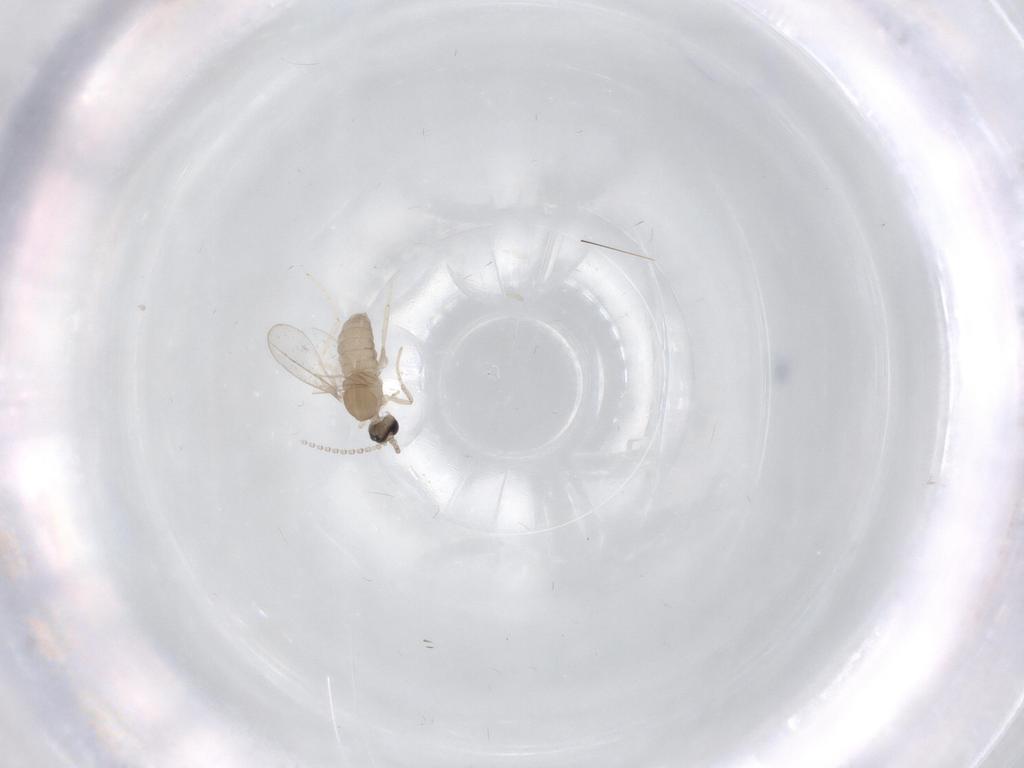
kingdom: Animalia
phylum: Arthropoda
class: Insecta
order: Diptera
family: Cecidomyiidae
